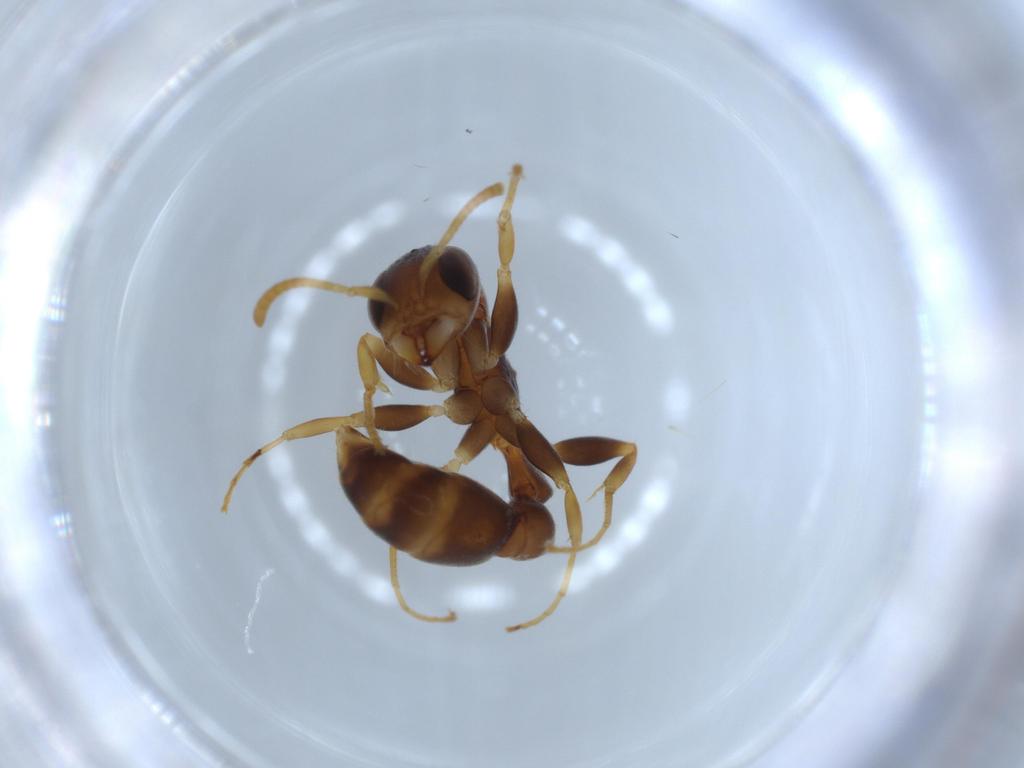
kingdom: Animalia
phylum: Arthropoda
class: Insecta
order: Hymenoptera
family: Formicidae
